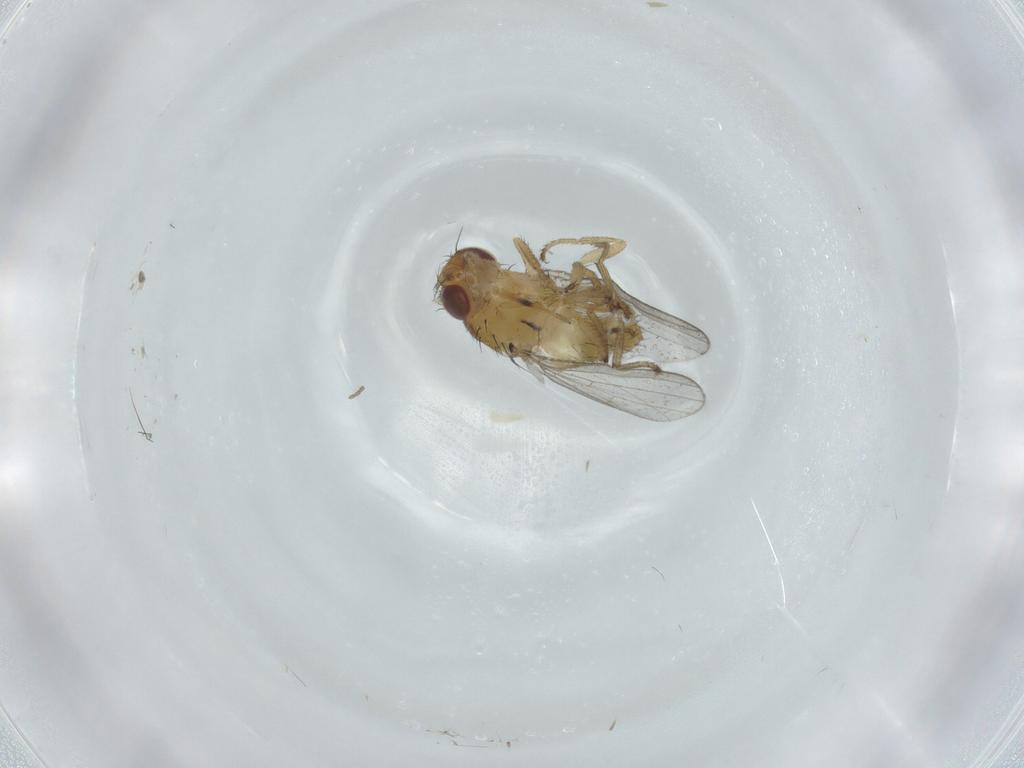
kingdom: Animalia
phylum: Arthropoda
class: Insecta
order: Diptera
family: Milichiidae
